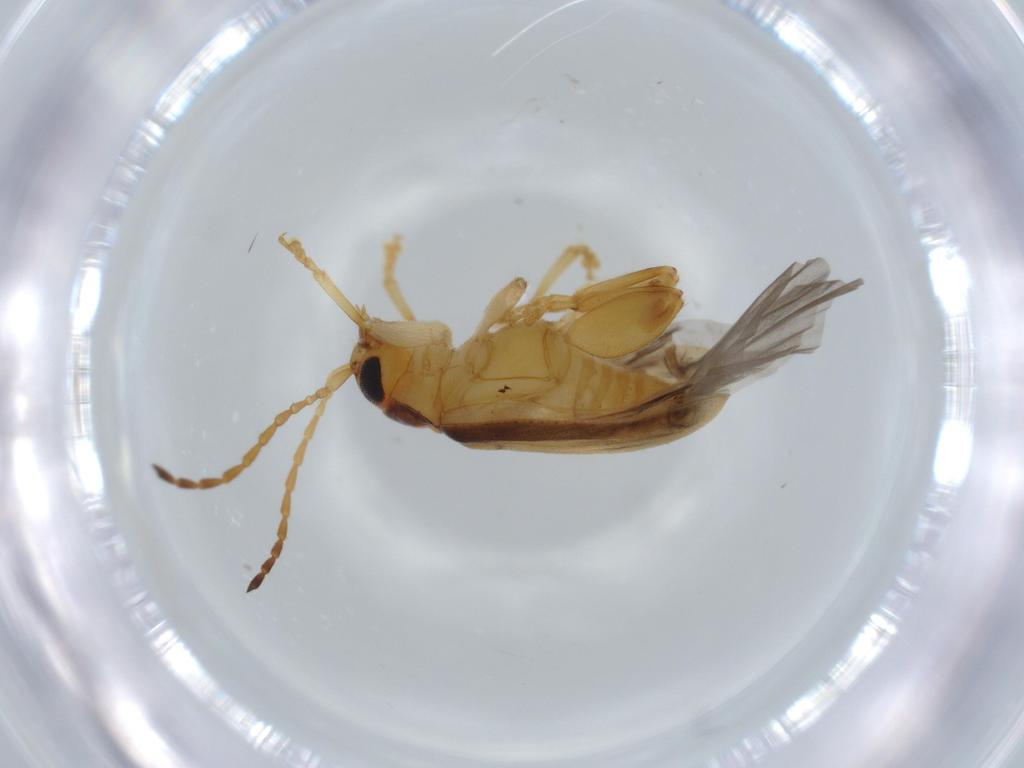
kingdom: Animalia
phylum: Arthropoda
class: Insecta
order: Coleoptera
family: Chrysomelidae
